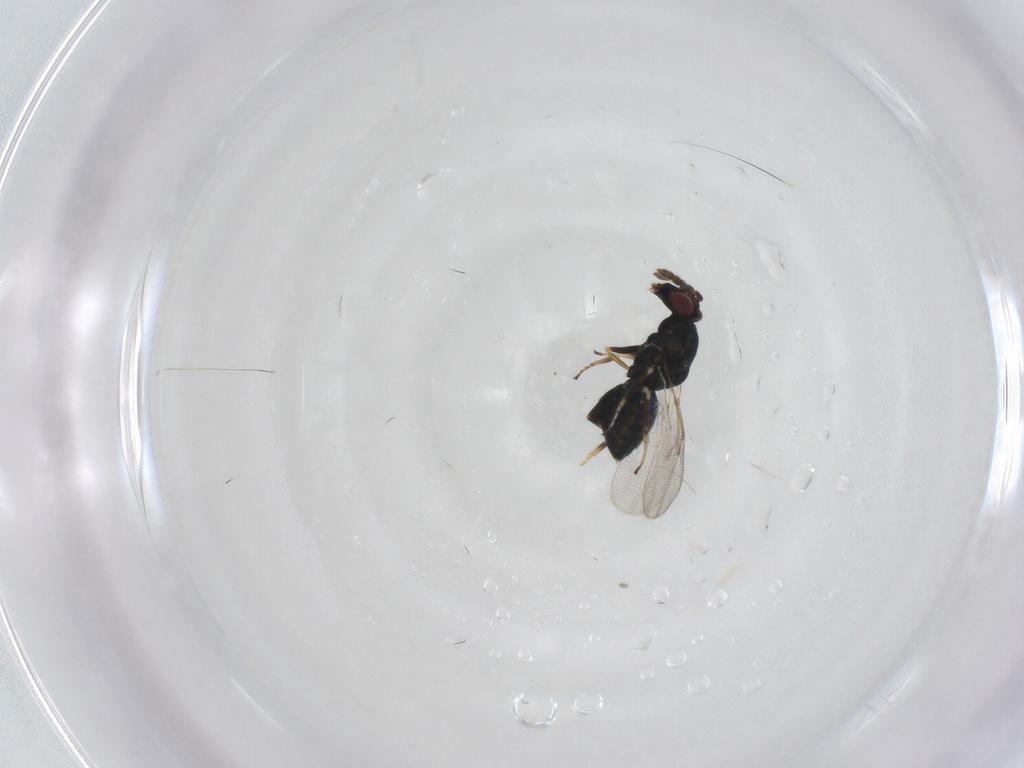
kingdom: Animalia
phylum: Arthropoda
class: Insecta
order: Hymenoptera
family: Eulophidae
